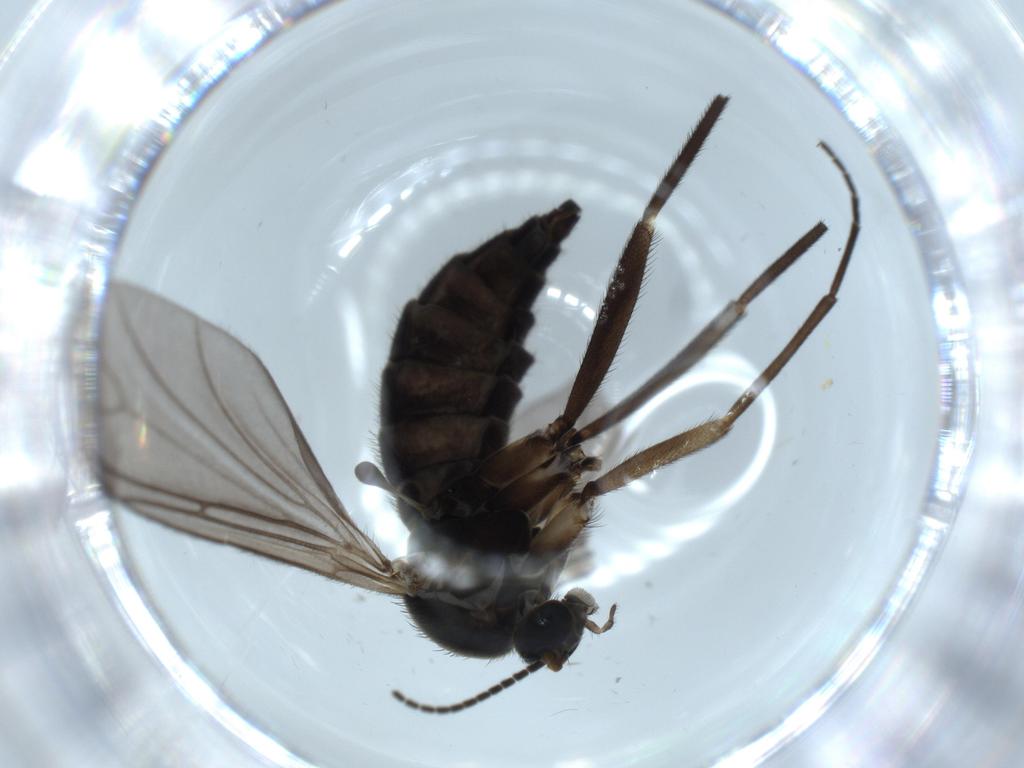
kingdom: Animalia
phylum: Arthropoda
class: Insecta
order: Diptera
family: Sciaridae
